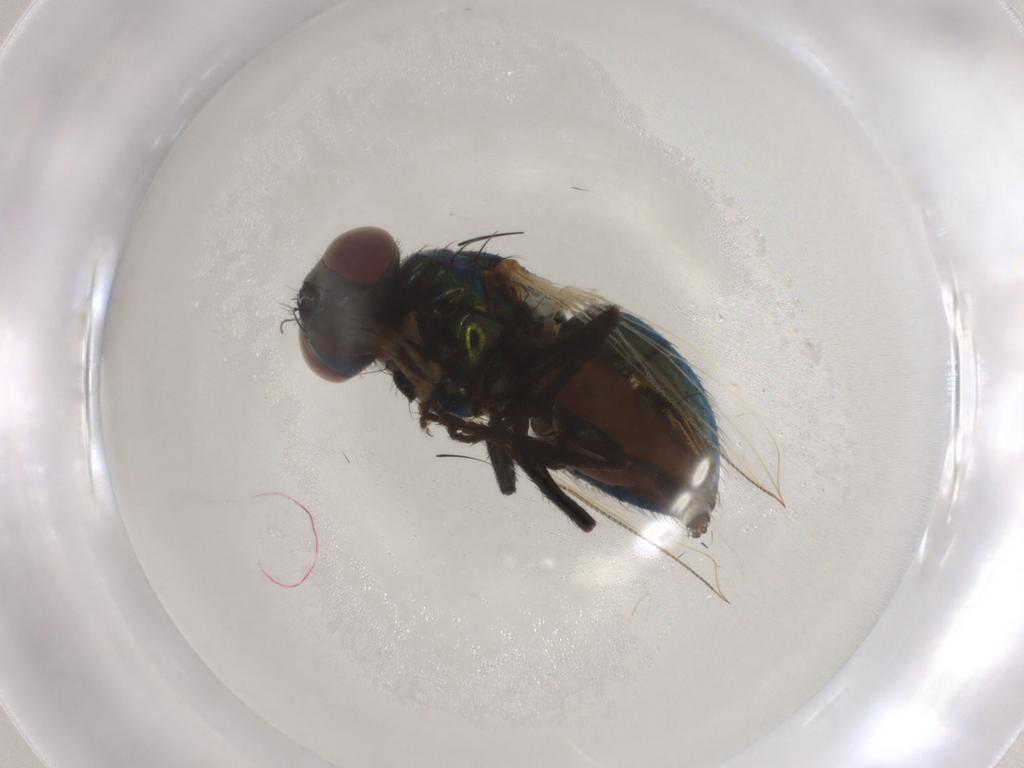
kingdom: Animalia
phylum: Arthropoda
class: Insecta
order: Diptera
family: Muscidae
